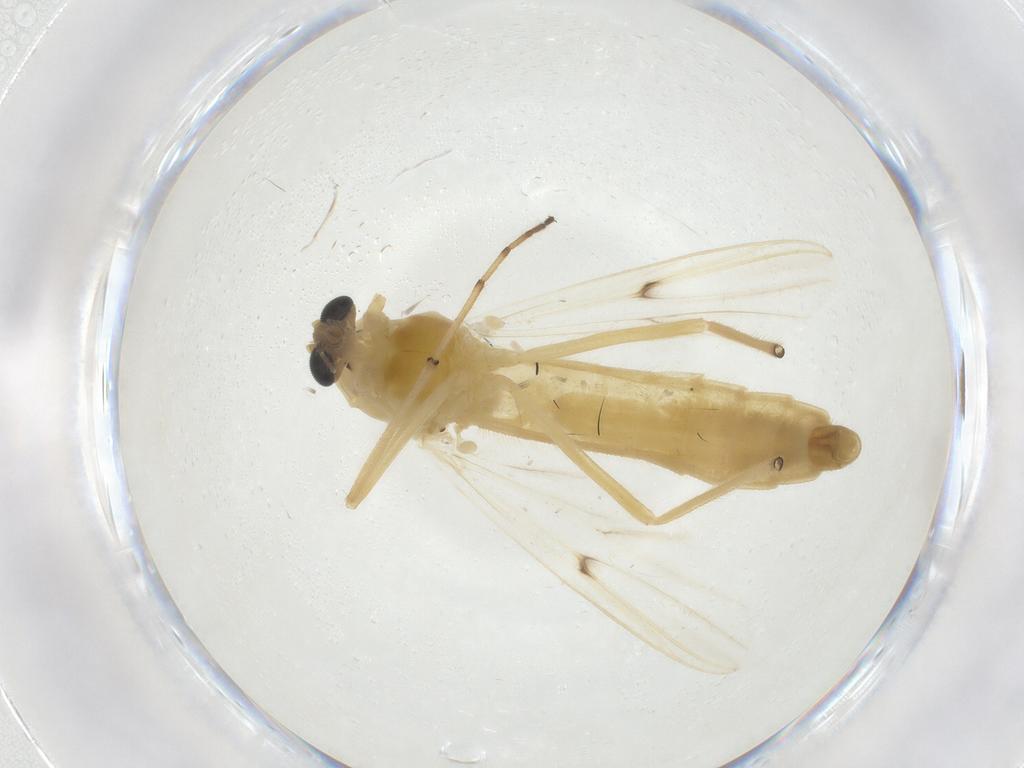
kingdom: Animalia
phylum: Arthropoda
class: Insecta
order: Diptera
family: Chironomidae
